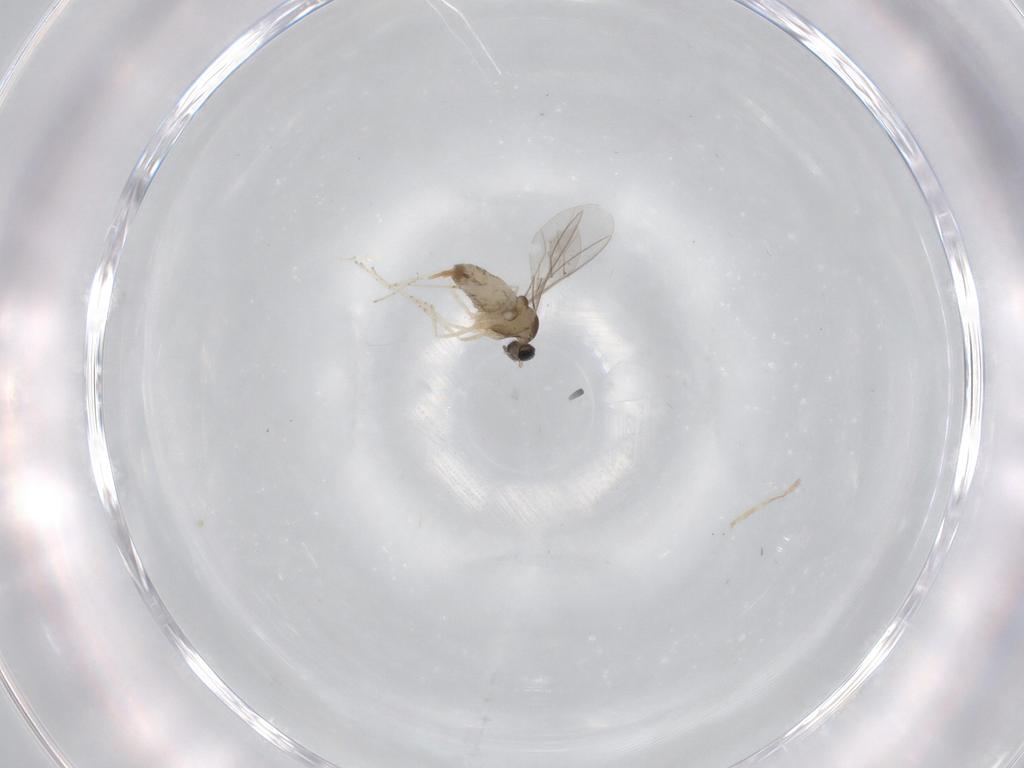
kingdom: Animalia
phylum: Arthropoda
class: Insecta
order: Diptera
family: Cecidomyiidae
